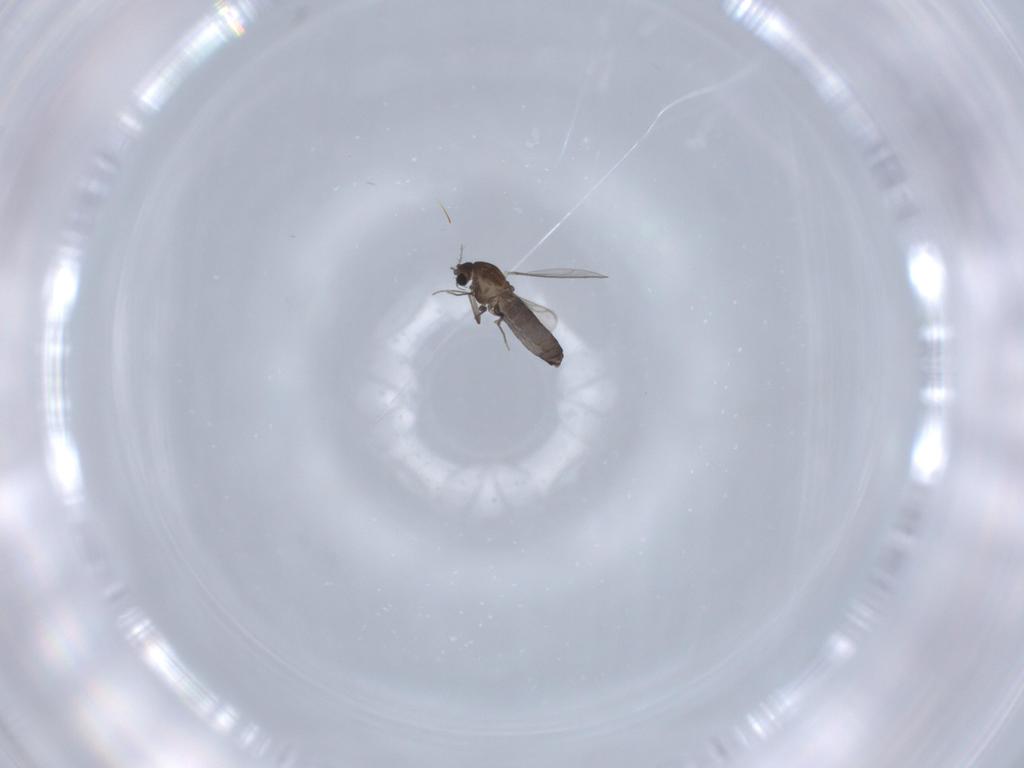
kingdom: Animalia
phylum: Arthropoda
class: Insecta
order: Diptera
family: Chironomidae
